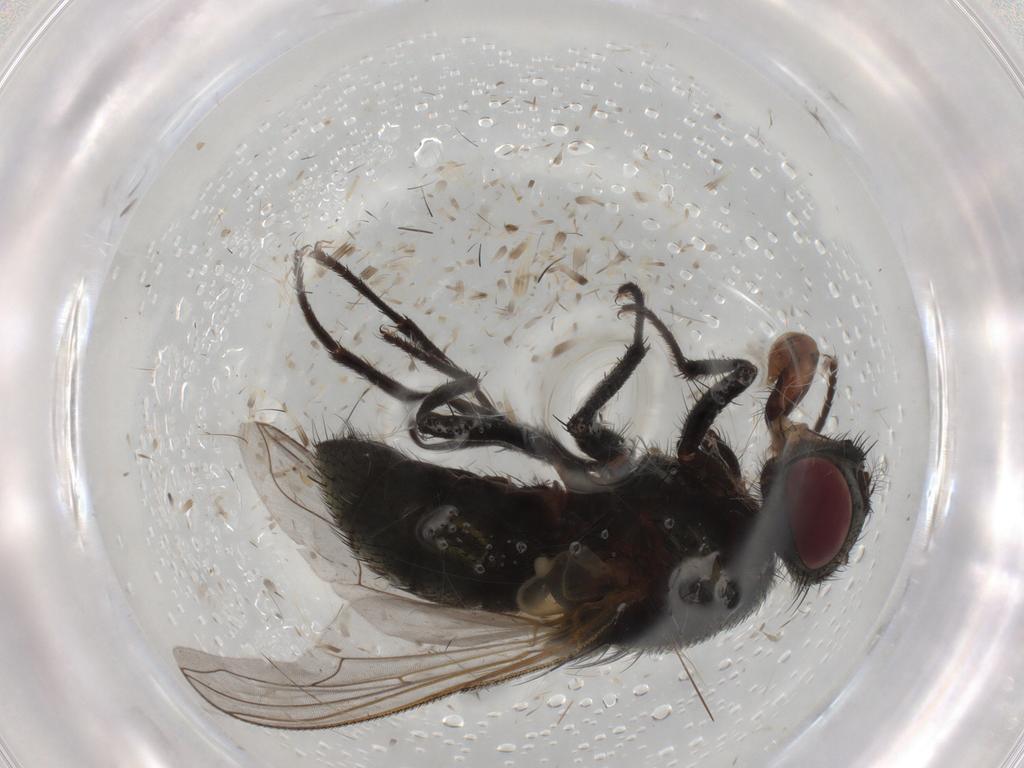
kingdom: Animalia
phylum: Arthropoda
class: Insecta
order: Diptera
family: Muscidae
